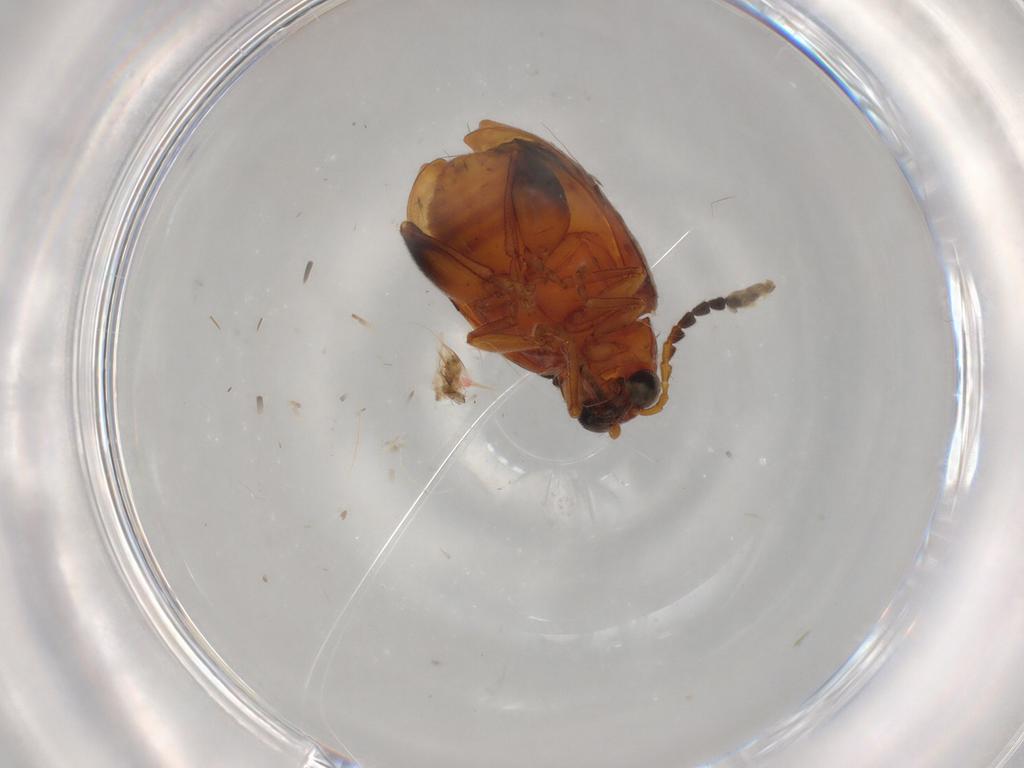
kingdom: Animalia
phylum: Arthropoda
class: Insecta
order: Coleoptera
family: Chrysomelidae
